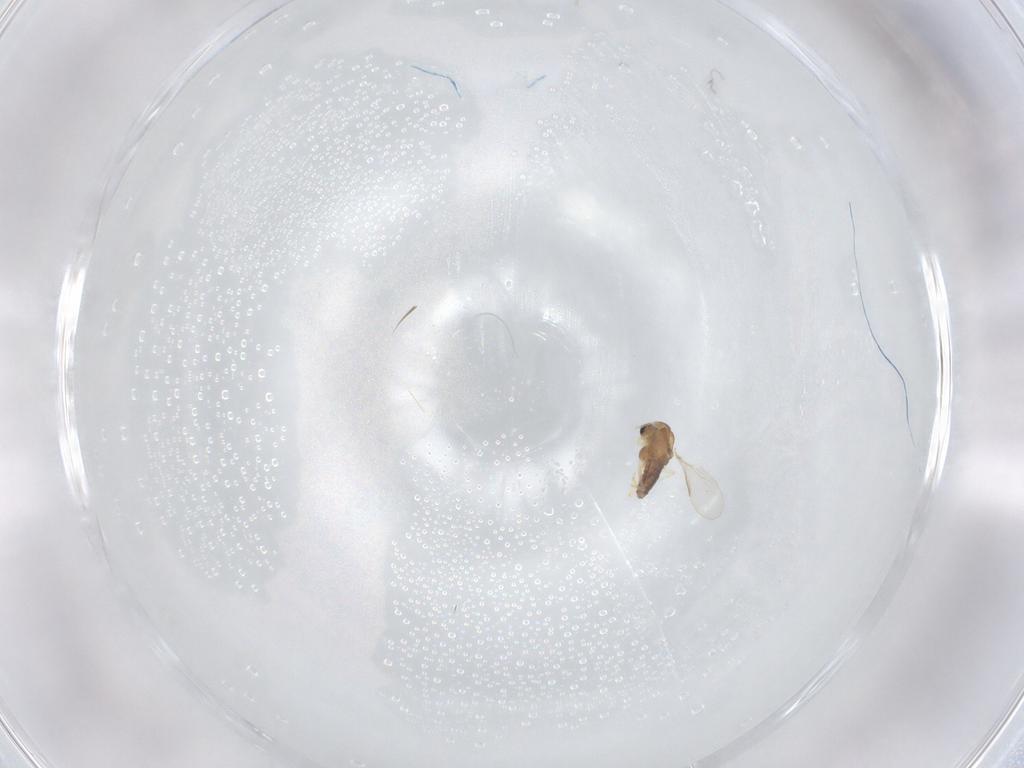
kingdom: Animalia
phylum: Arthropoda
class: Insecta
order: Diptera
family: Chironomidae
